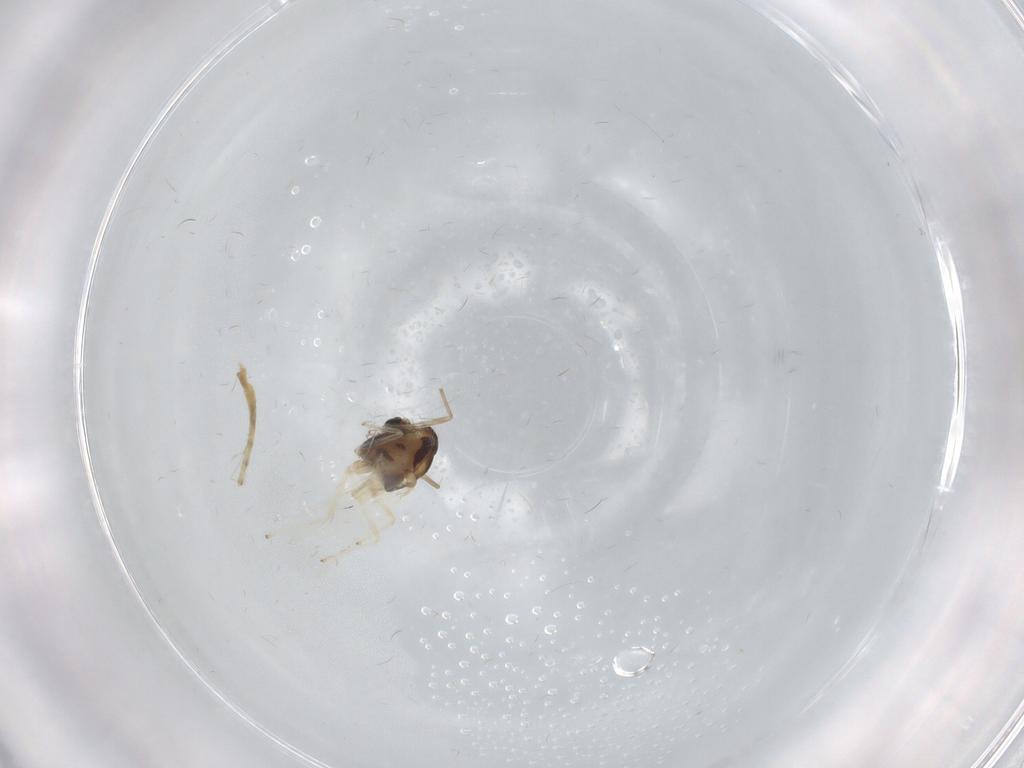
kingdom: Animalia
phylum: Arthropoda
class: Insecta
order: Diptera
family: Chironomidae
